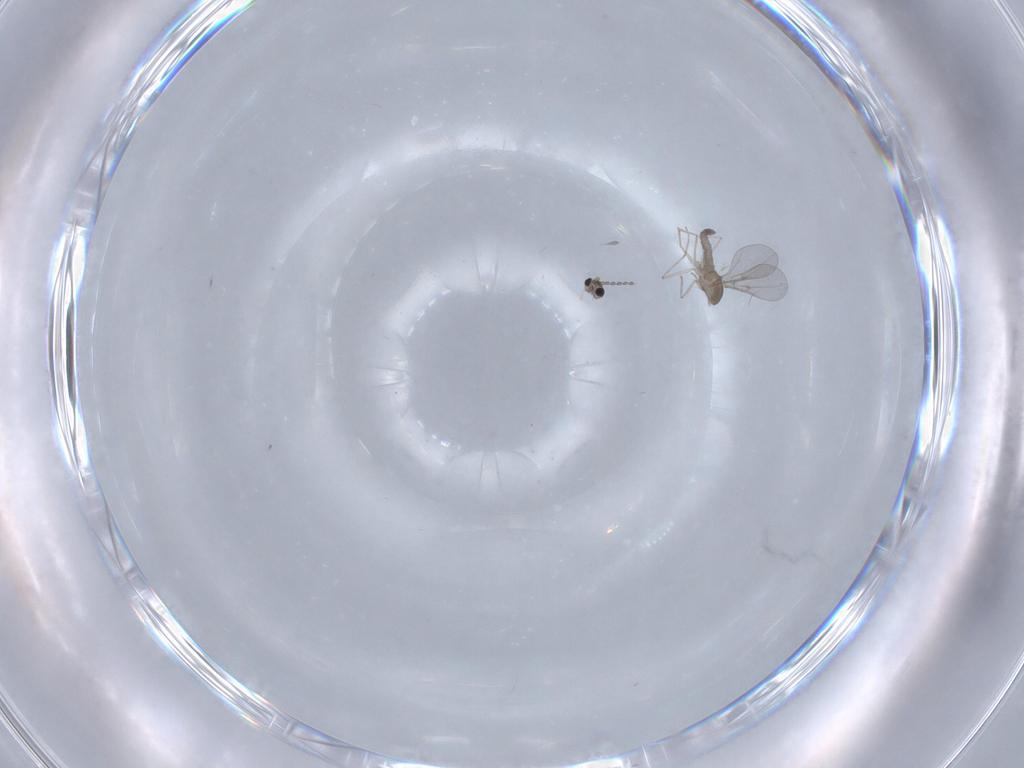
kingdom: Animalia
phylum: Arthropoda
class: Insecta
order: Diptera
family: Cecidomyiidae
